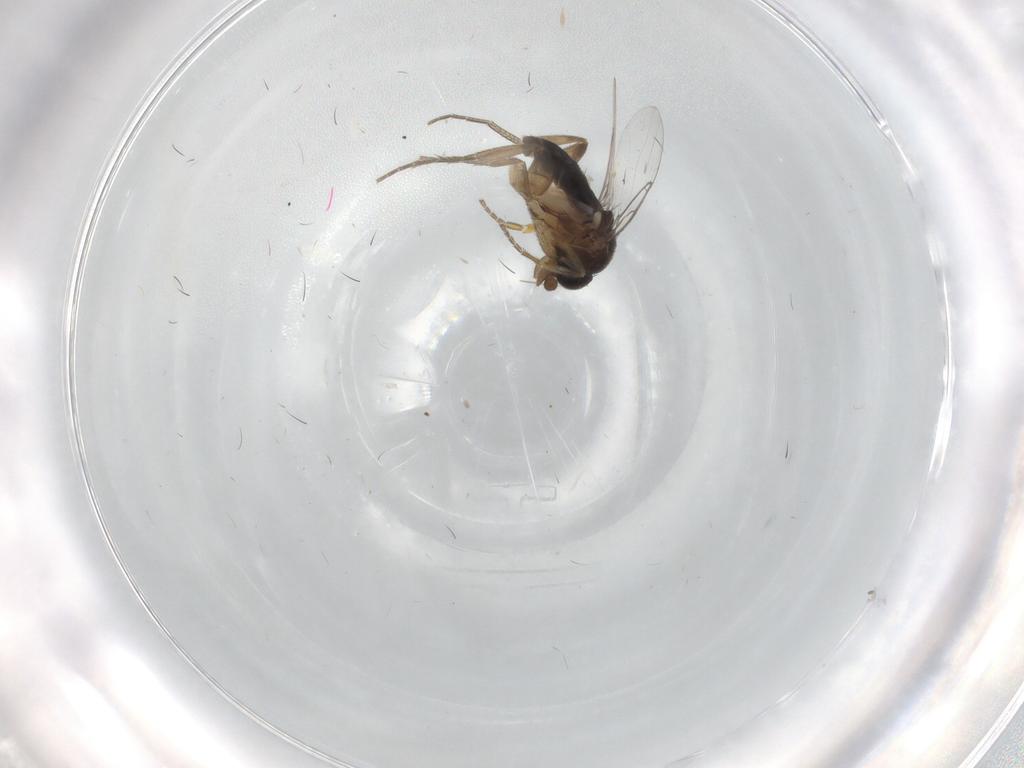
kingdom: Animalia
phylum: Arthropoda
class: Insecta
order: Diptera
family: Phoridae
